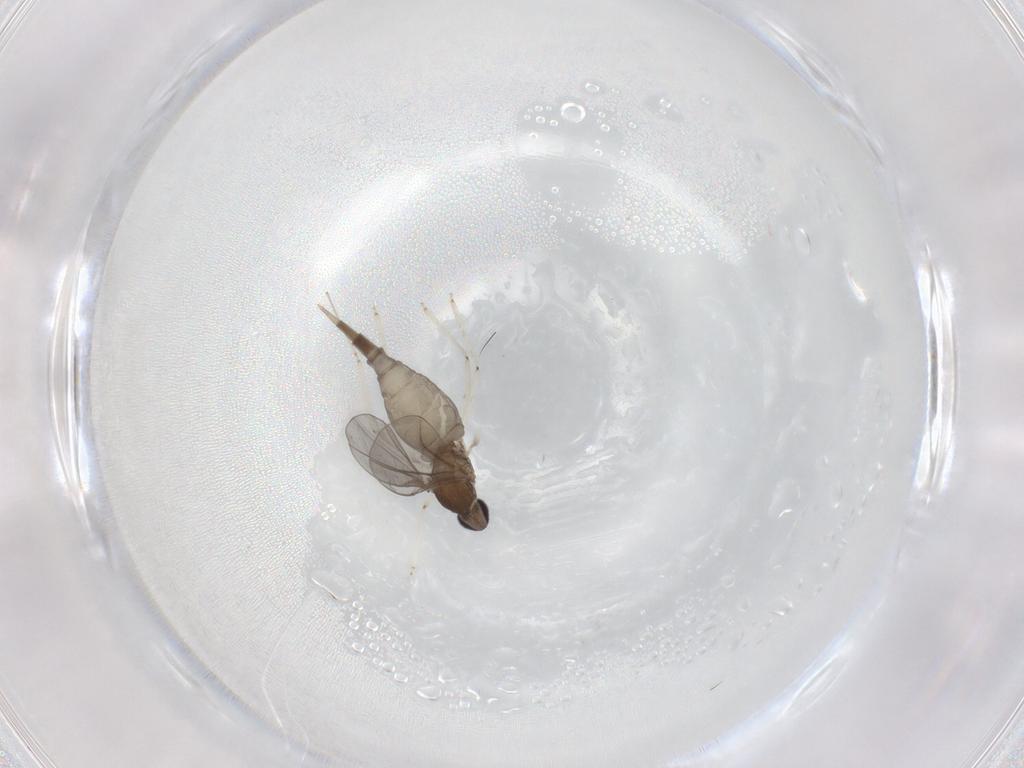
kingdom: Animalia
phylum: Arthropoda
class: Insecta
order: Diptera
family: Cecidomyiidae
